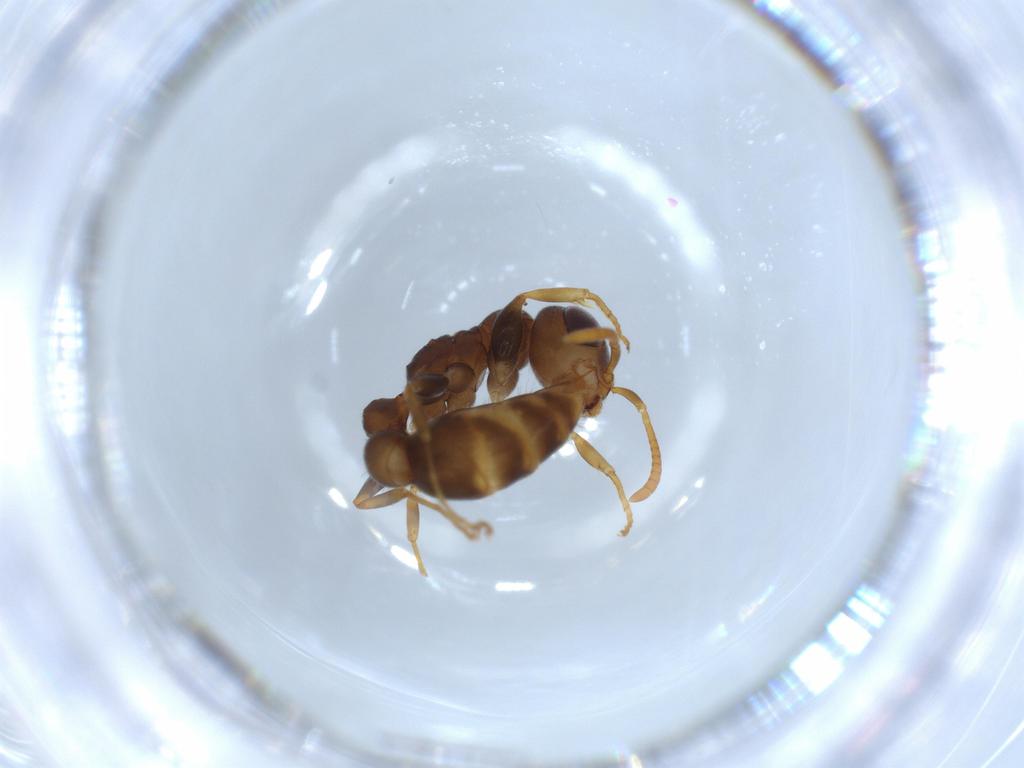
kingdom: Animalia
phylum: Arthropoda
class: Insecta
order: Hymenoptera
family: Formicidae
